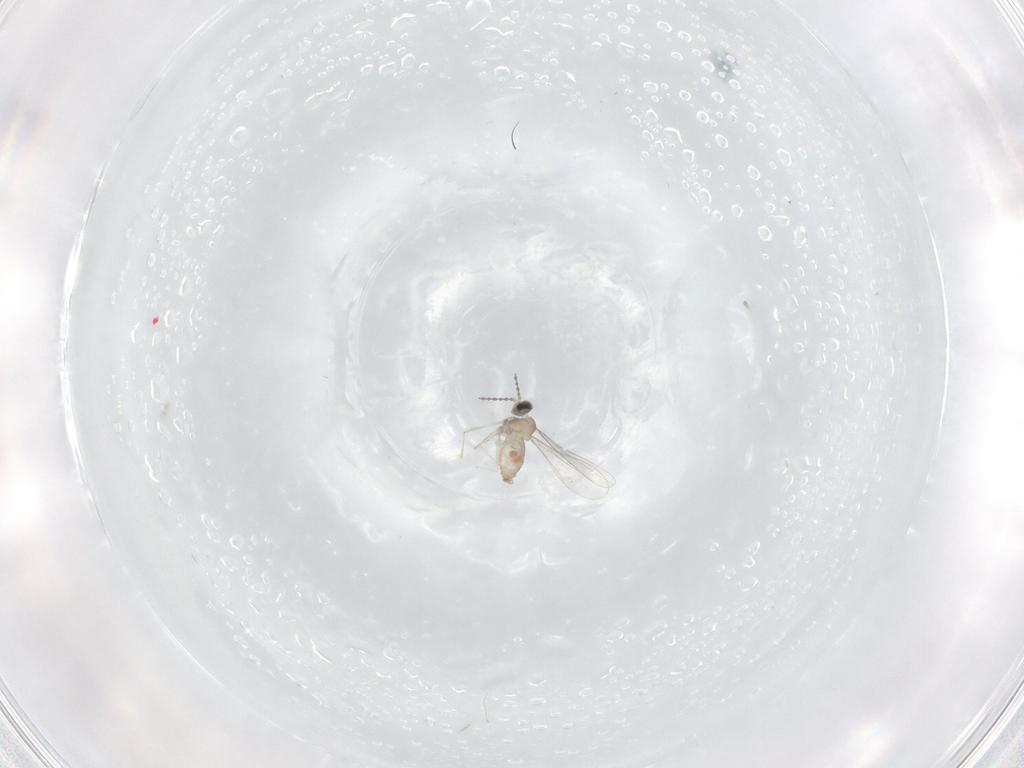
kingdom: Animalia
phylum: Arthropoda
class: Insecta
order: Diptera
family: Cecidomyiidae
